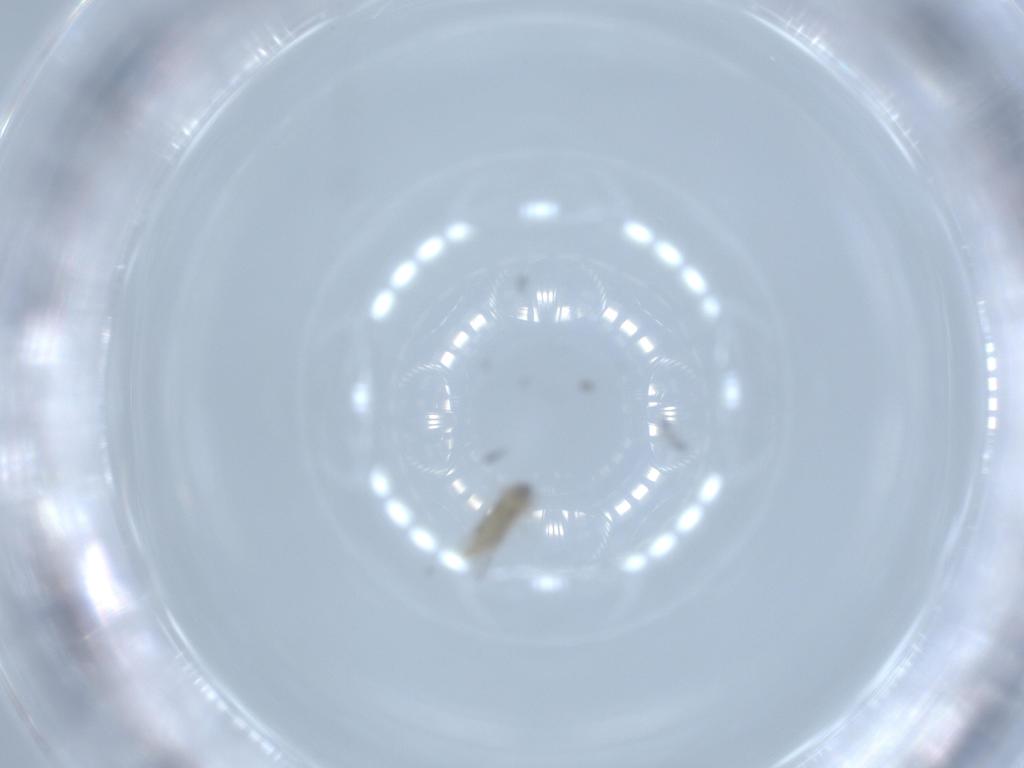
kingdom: Animalia
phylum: Arthropoda
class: Insecta
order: Diptera
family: Cecidomyiidae
